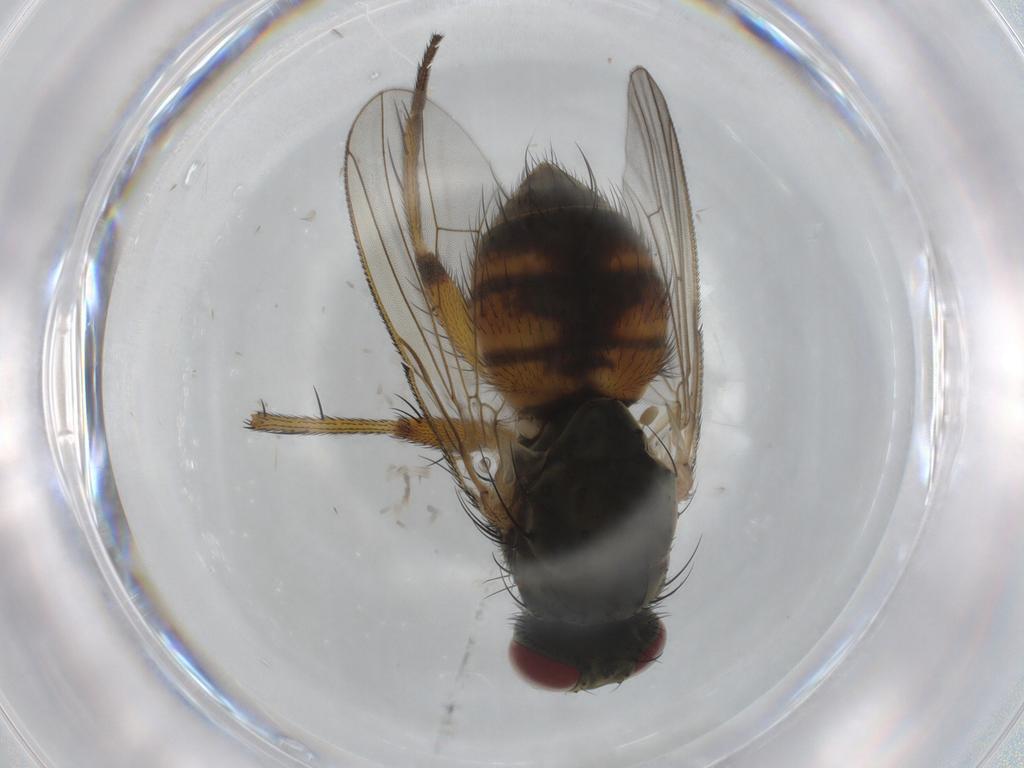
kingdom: Animalia
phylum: Arthropoda
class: Insecta
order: Diptera
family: Muscidae
